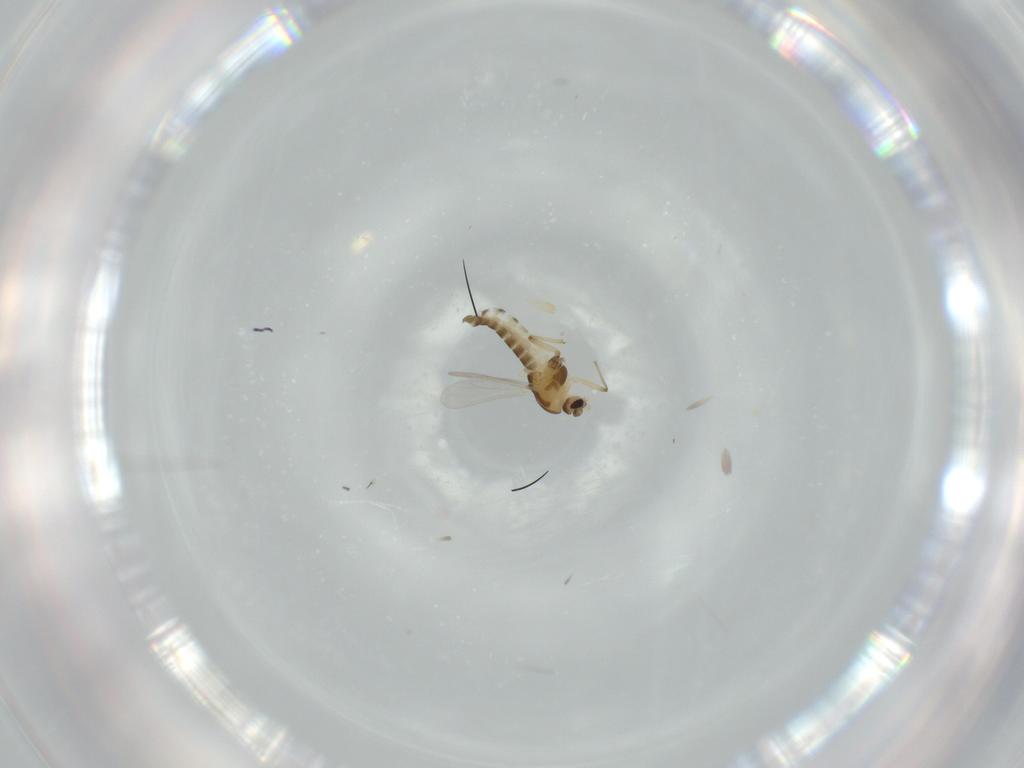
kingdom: Animalia
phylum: Arthropoda
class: Insecta
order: Diptera
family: Chironomidae
